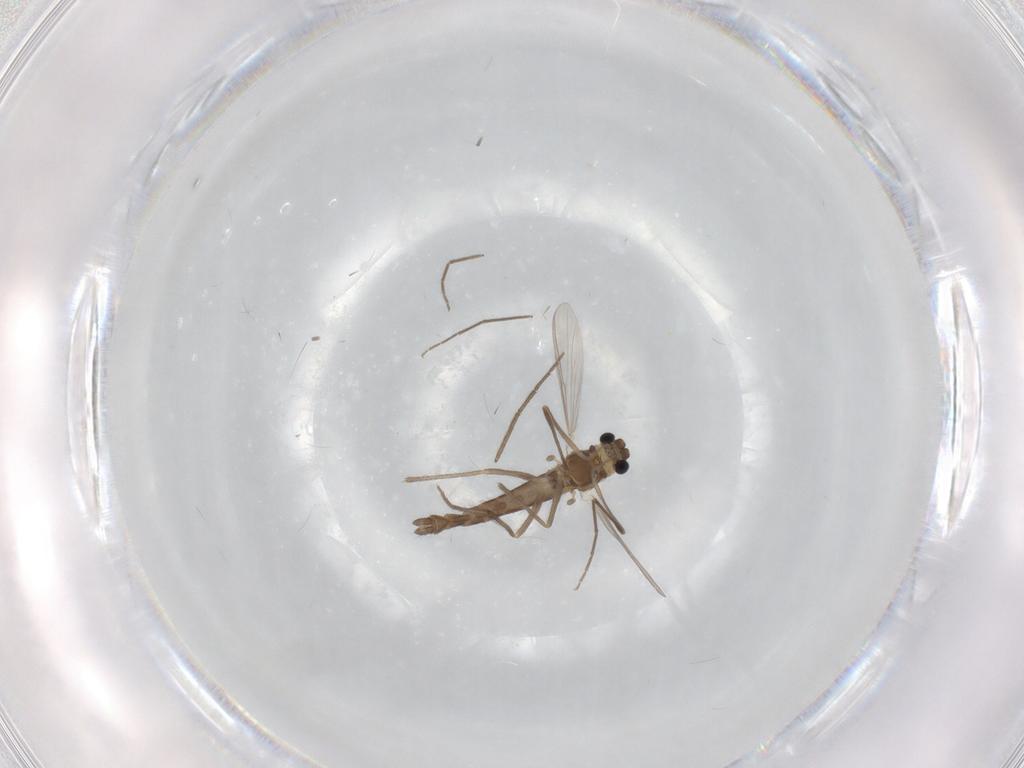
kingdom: Animalia
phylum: Arthropoda
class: Insecta
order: Diptera
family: Chironomidae
